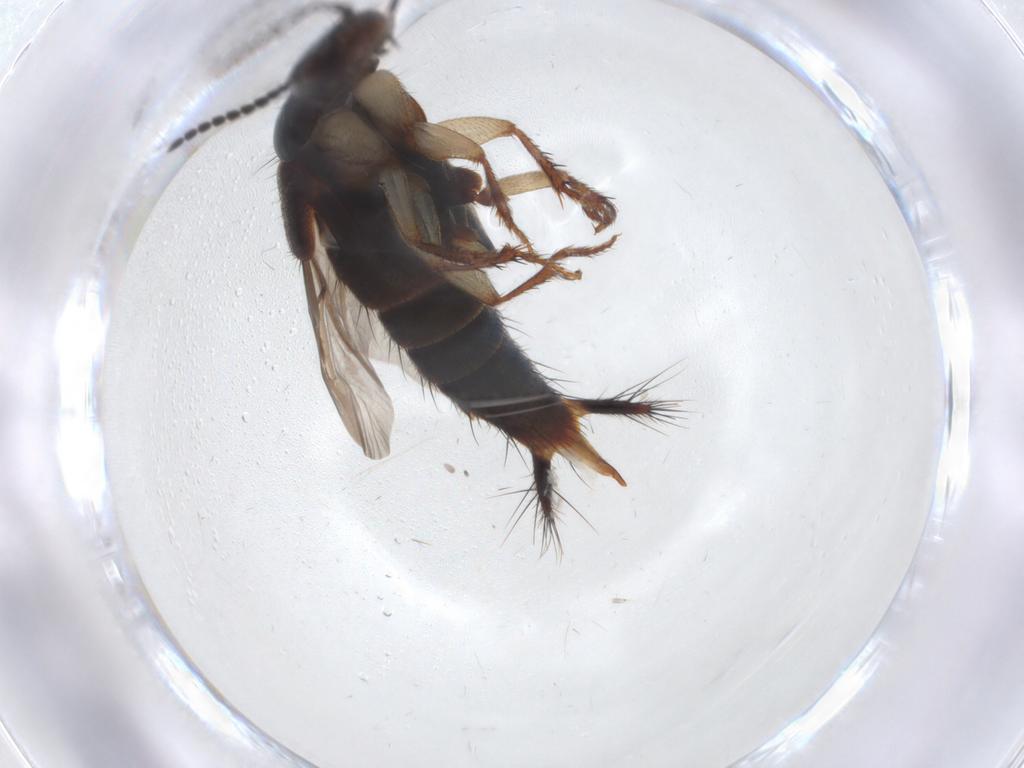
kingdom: Animalia
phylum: Arthropoda
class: Insecta
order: Coleoptera
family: Staphylinidae
